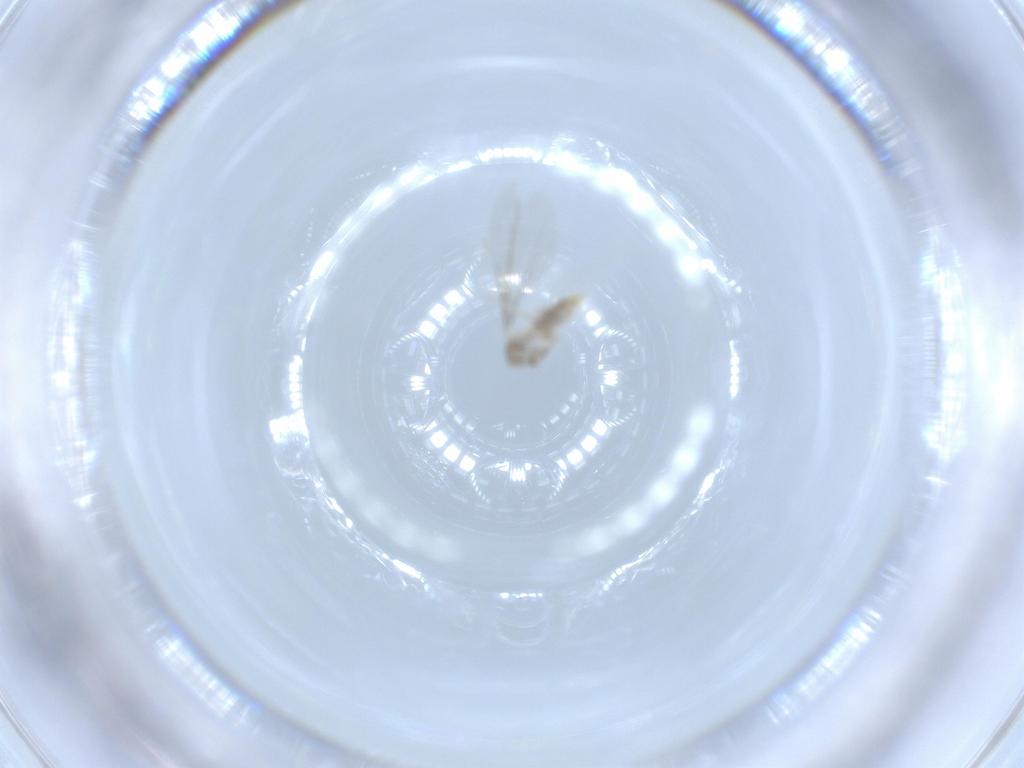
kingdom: Animalia
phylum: Arthropoda
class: Insecta
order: Diptera
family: Cecidomyiidae
